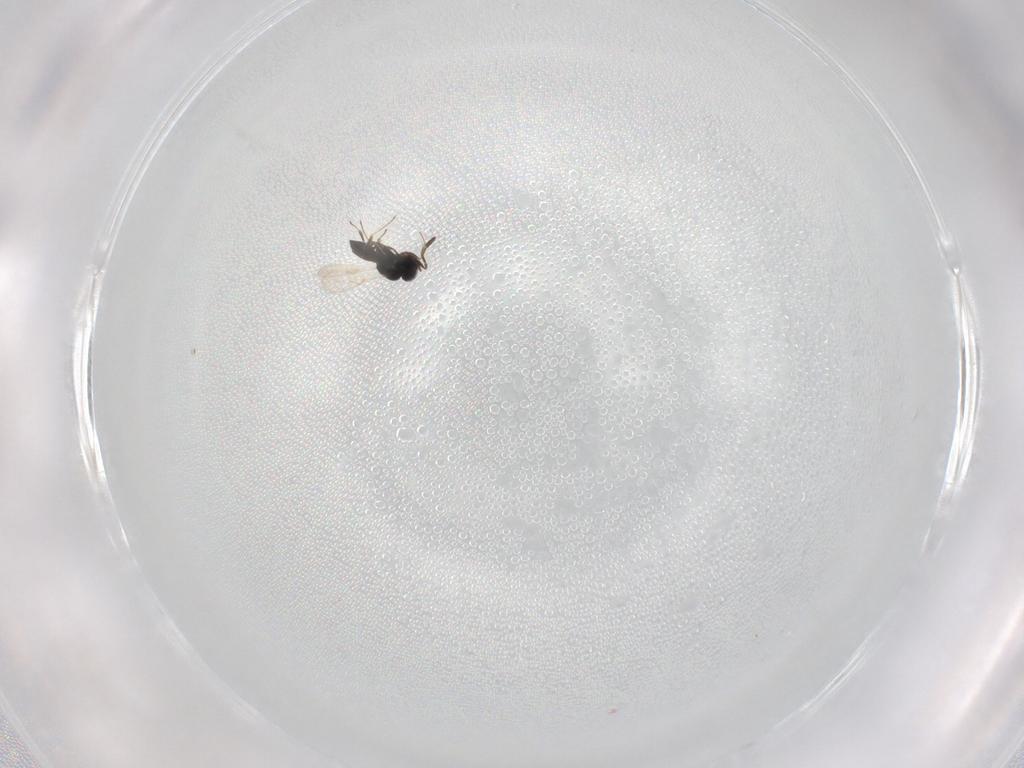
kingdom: Animalia
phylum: Arthropoda
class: Insecta
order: Hymenoptera
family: Scelionidae
